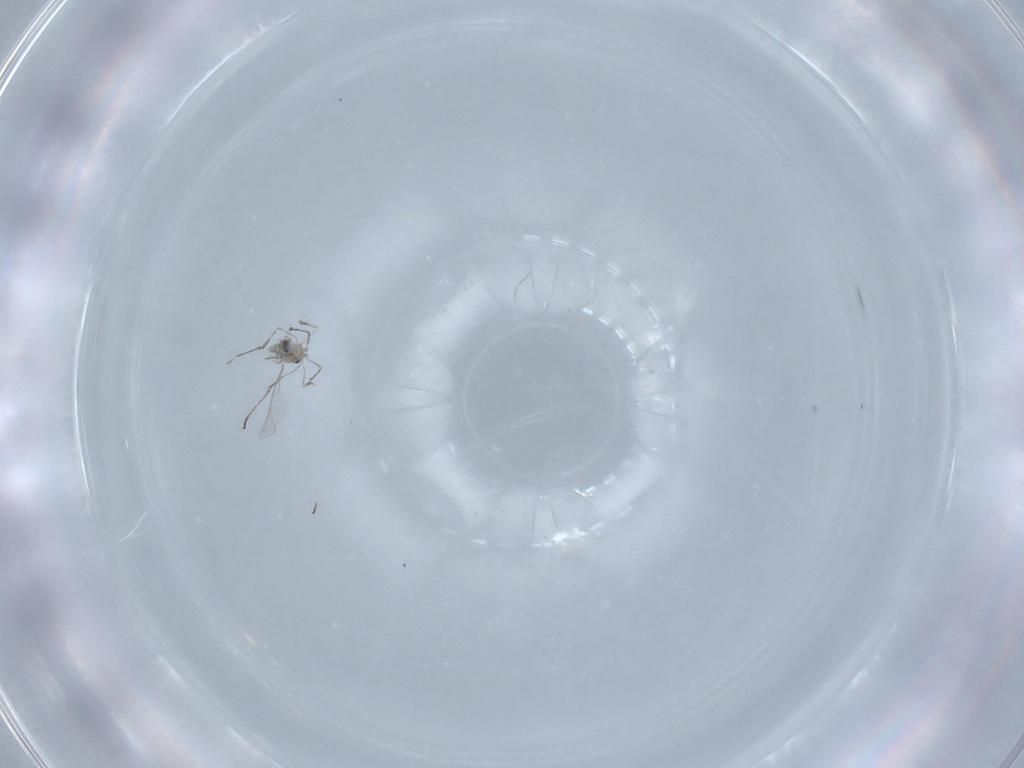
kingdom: Animalia
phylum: Arthropoda
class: Insecta
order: Diptera
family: Cecidomyiidae
